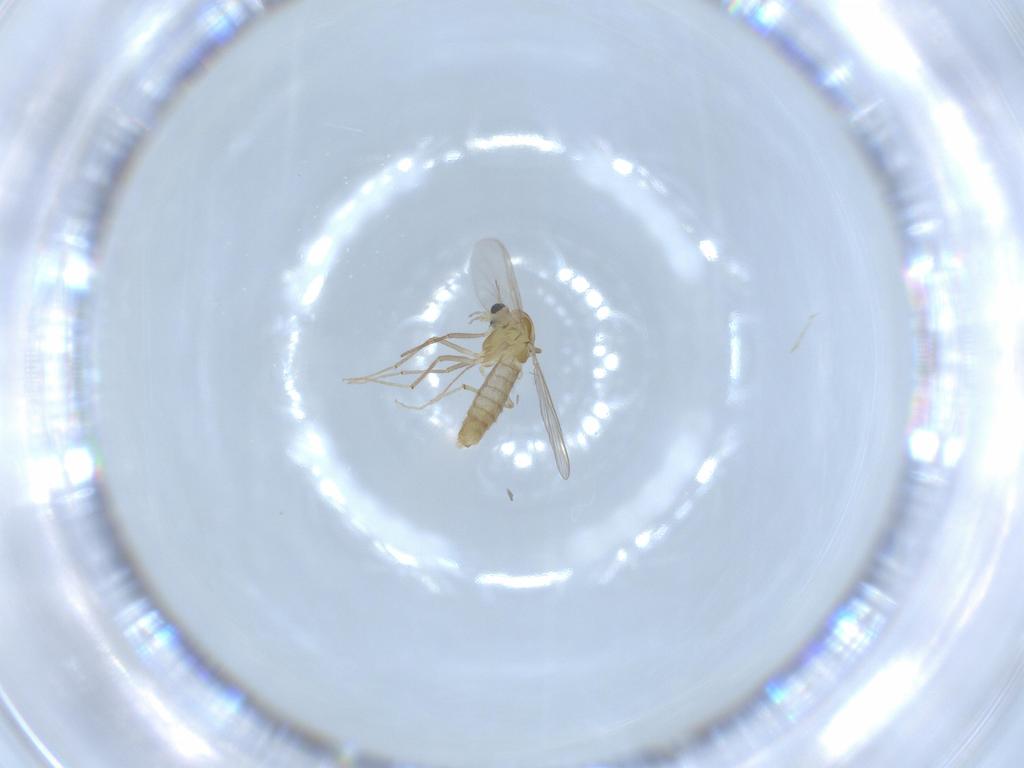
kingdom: Animalia
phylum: Arthropoda
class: Insecta
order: Diptera
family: Chironomidae
